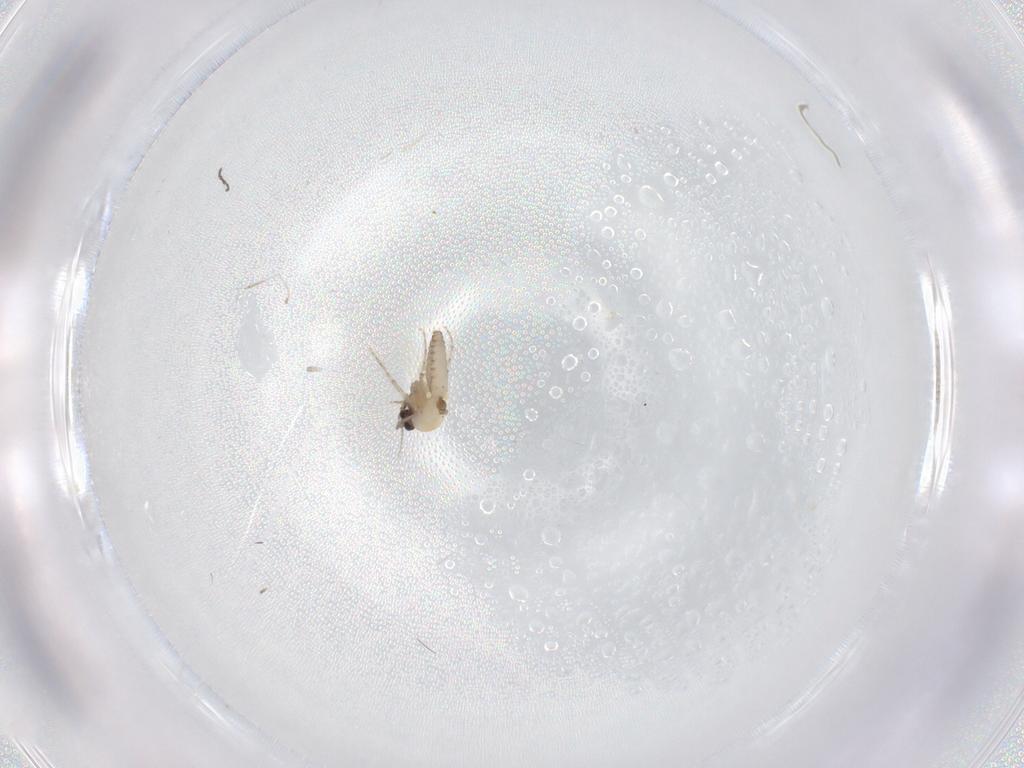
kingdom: Animalia
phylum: Arthropoda
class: Insecta
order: Diptera
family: Cecidomyiidae
